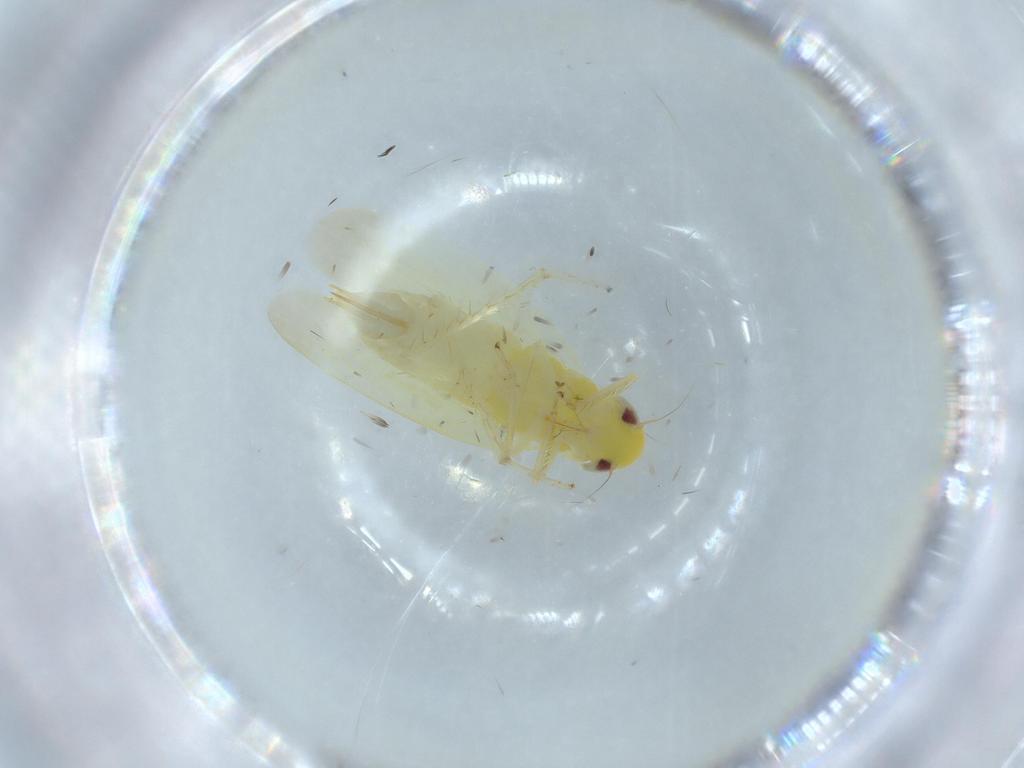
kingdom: Animalia
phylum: Arthropoda
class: Insecta
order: Hemiptera
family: Cicadellidae
